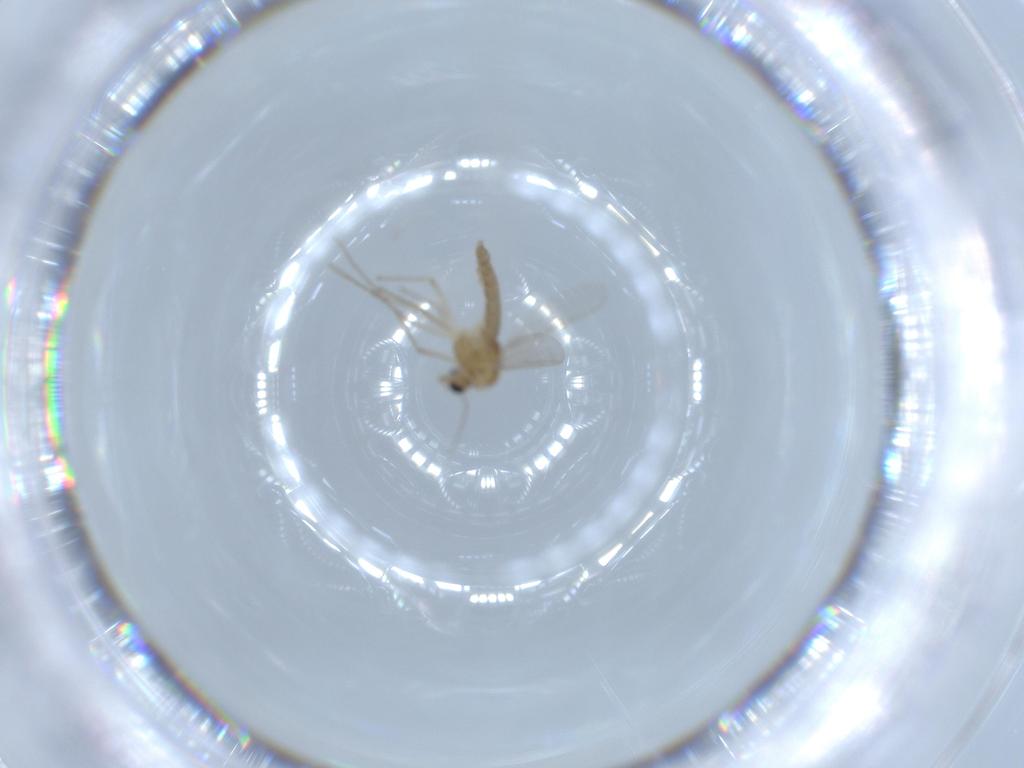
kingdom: Animalia
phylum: Arthropoda
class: Insecta
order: Diptera
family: Chironomidae
